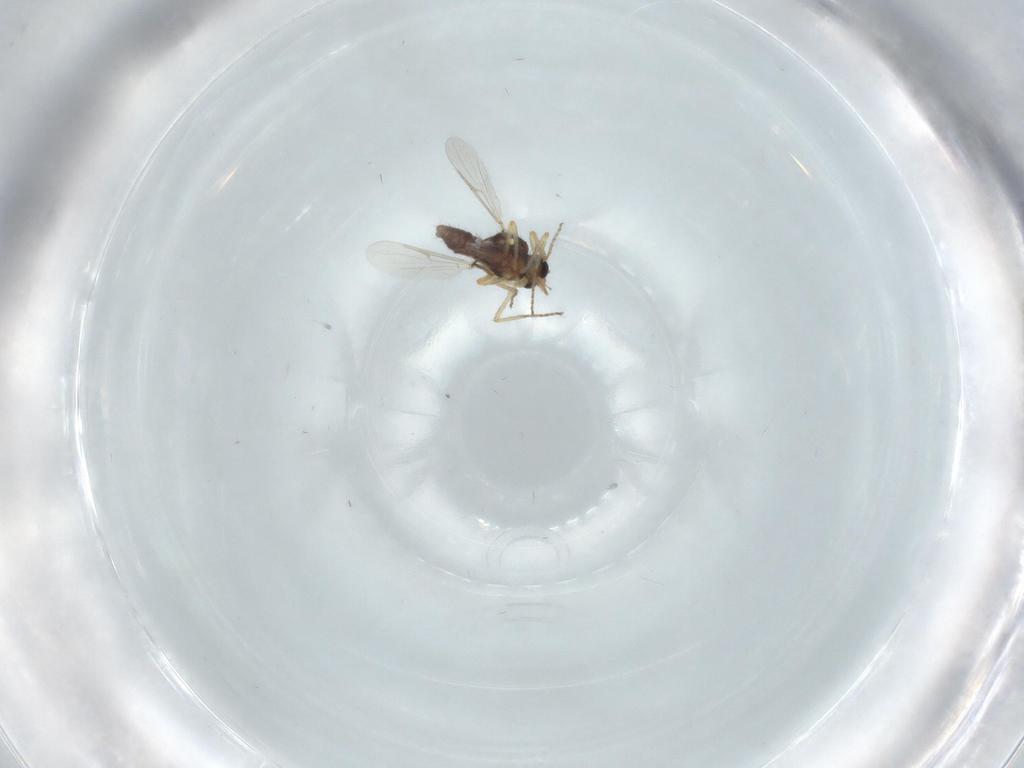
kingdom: Animalia
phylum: Arthropoda
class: Insecta
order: Diptera
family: Ceratopogonidae
